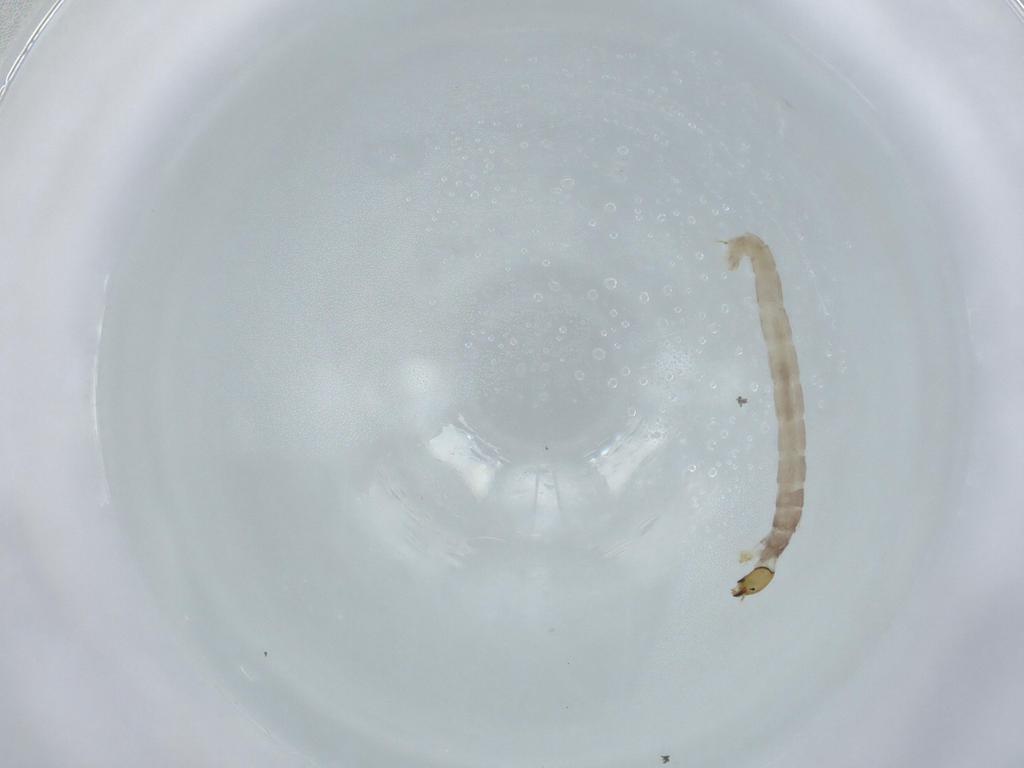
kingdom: Animalia
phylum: Arthropoda
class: Insecta
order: Diptera
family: Chironomidae
